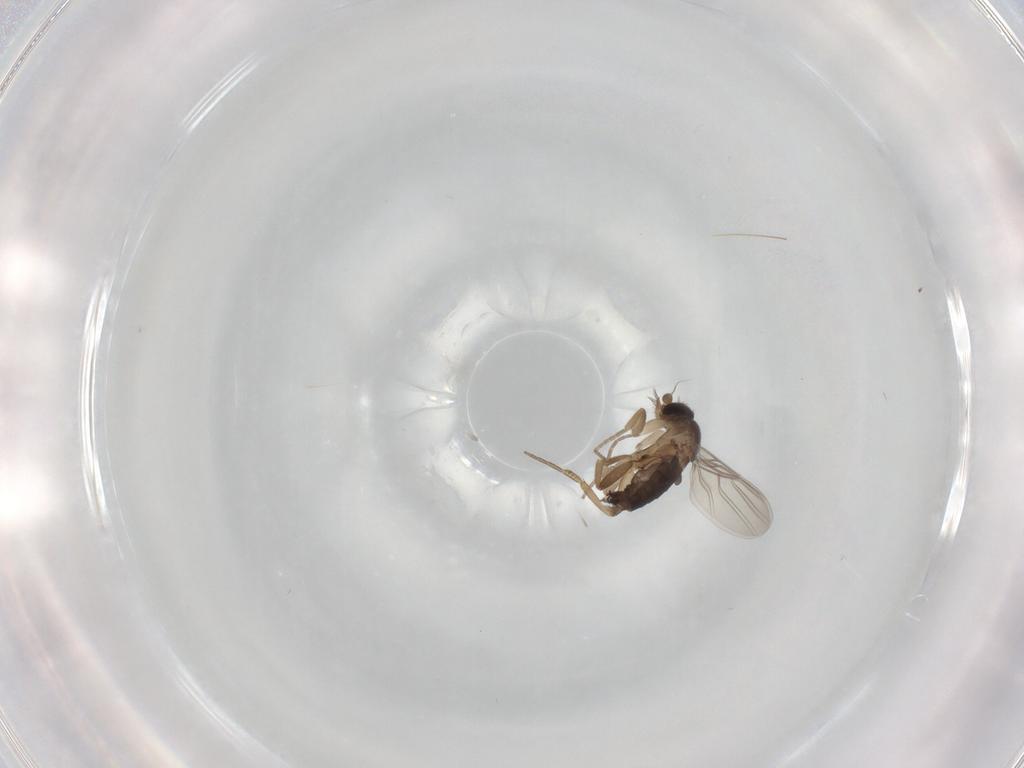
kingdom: Animalia
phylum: Arthropoda
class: Insecta
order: Diptera
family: Phoridae
